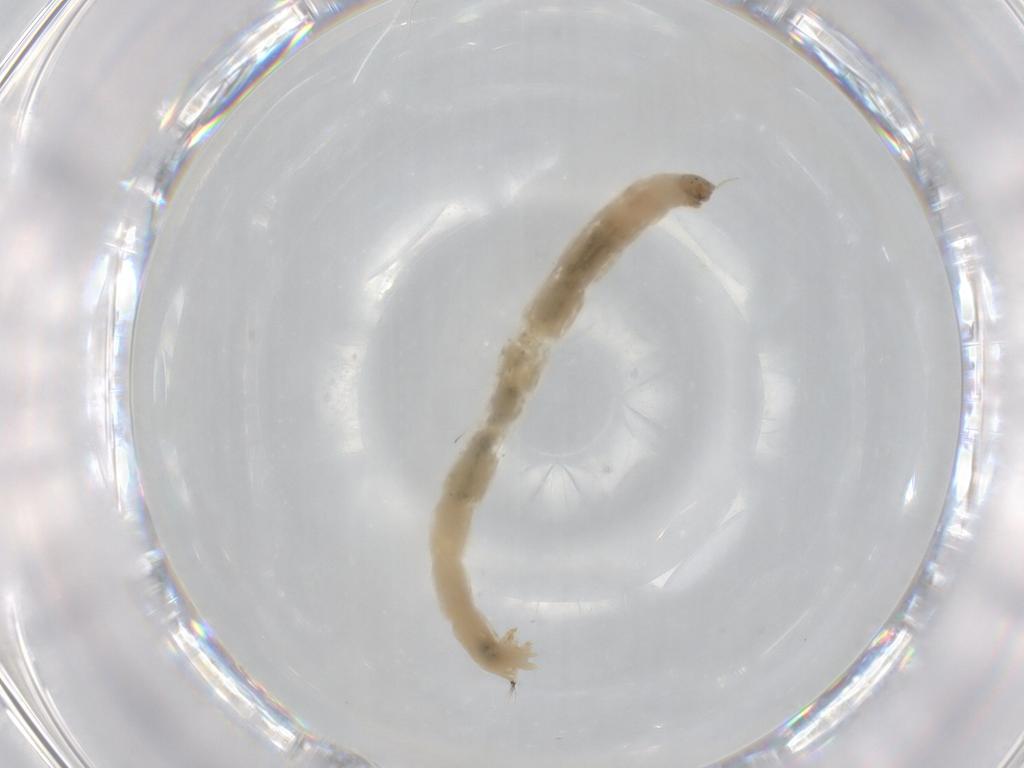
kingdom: Animalia
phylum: Arthropoda
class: Insecta
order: Diptera
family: Chironomidae
